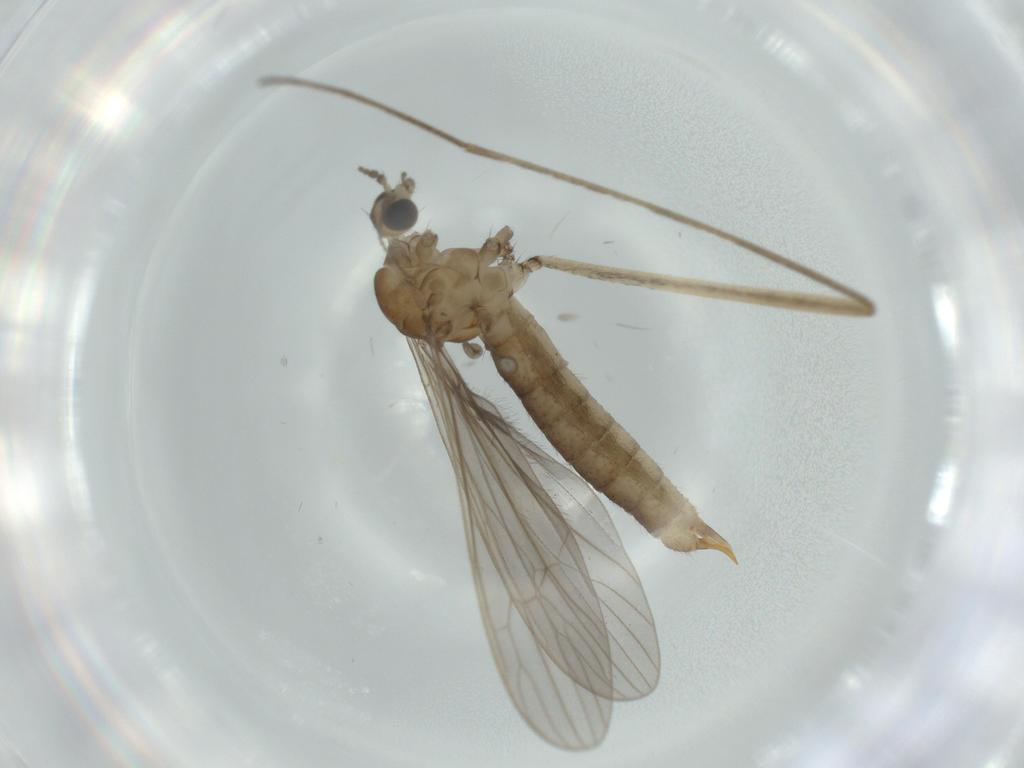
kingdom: Animalia
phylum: Arthropoda
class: Insecta
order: Diptera
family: Limoniidae
